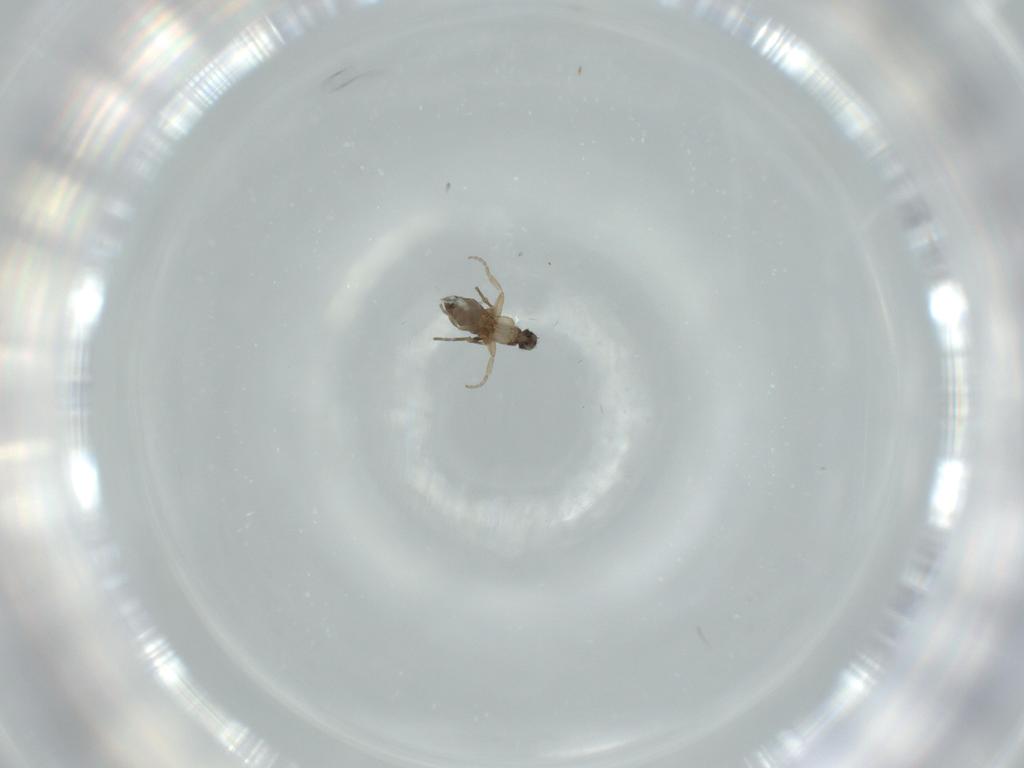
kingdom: Animalia
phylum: Arthropoda
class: Insecta
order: Diptera
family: Phoridae
